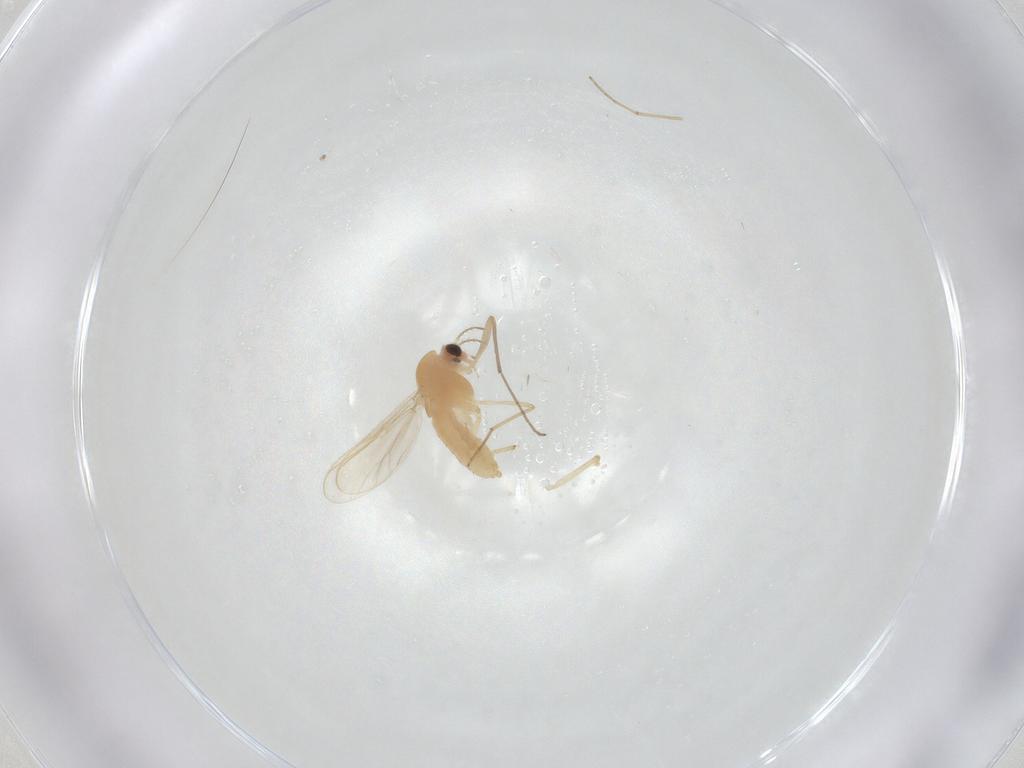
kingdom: Animalia
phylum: Arthropoda
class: Insecta
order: Diptera
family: Chironomidae
